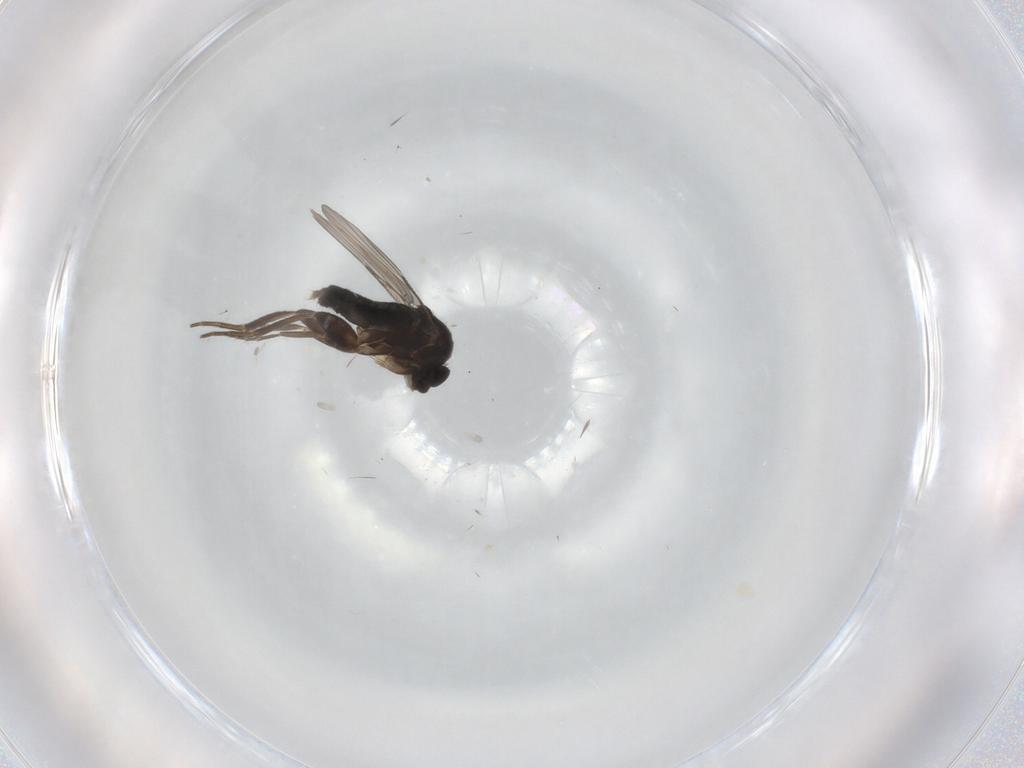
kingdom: Animalia
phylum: Arthropoda
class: Insecta
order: Diptera
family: Phoridae
